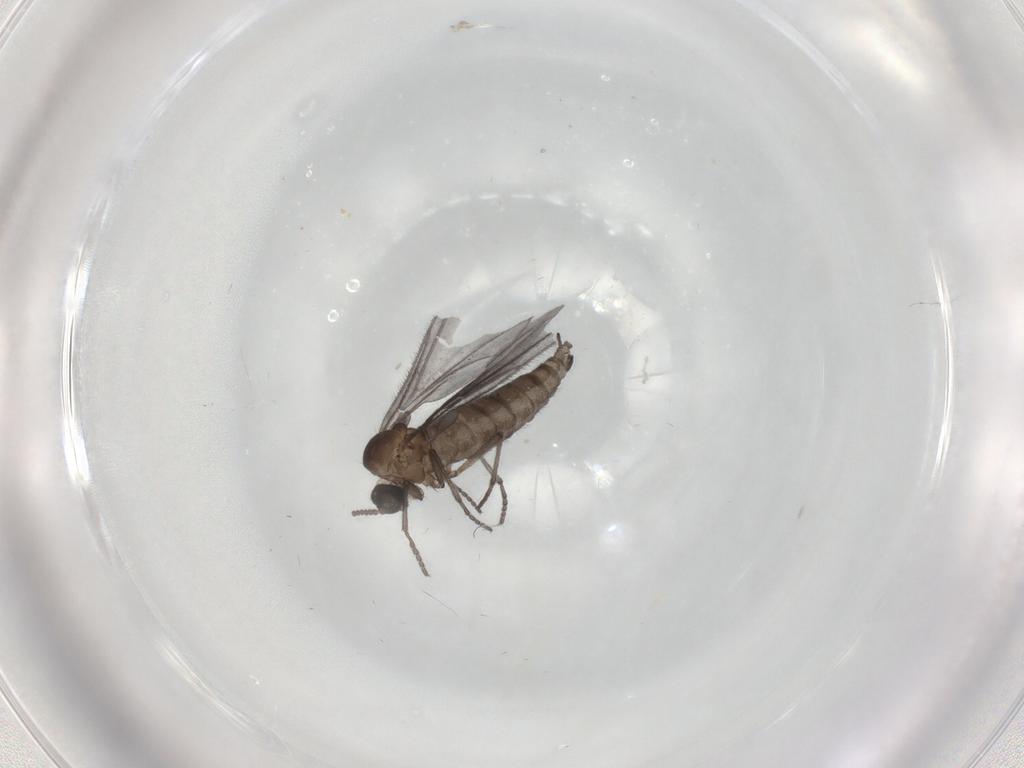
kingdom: Animalia
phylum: Arthropoda
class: Insecta
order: Diptera
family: Sciaridae
